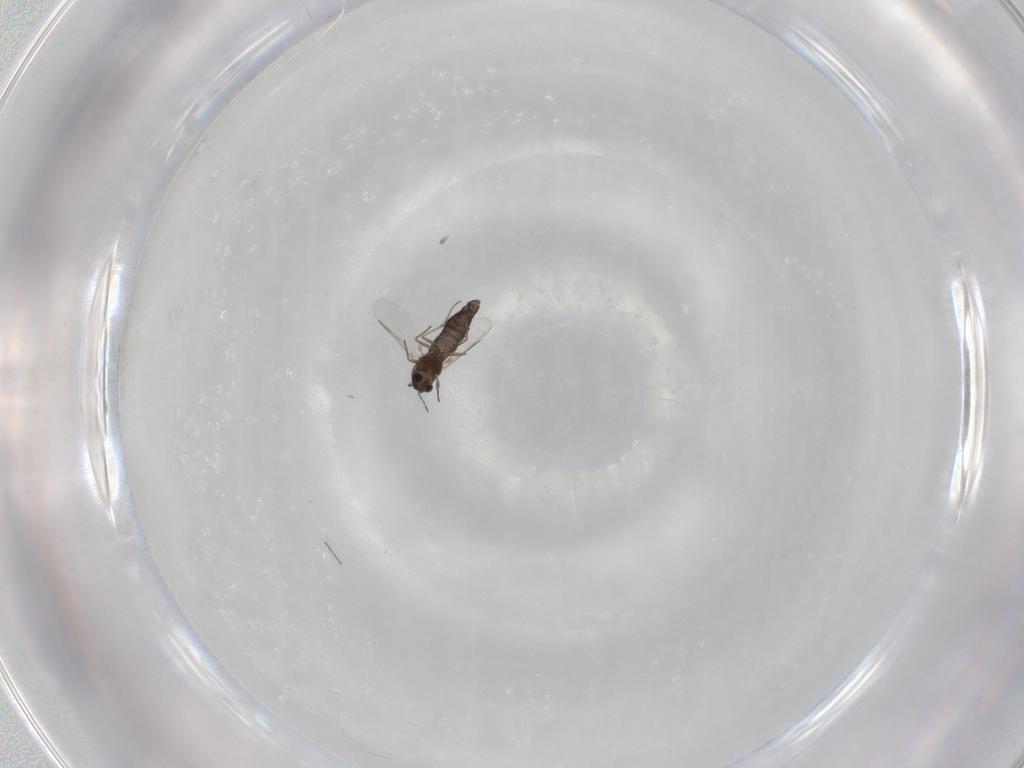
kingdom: Animalia
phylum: Arthropoda
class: Insecta
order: Diptera
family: Chironomidae
